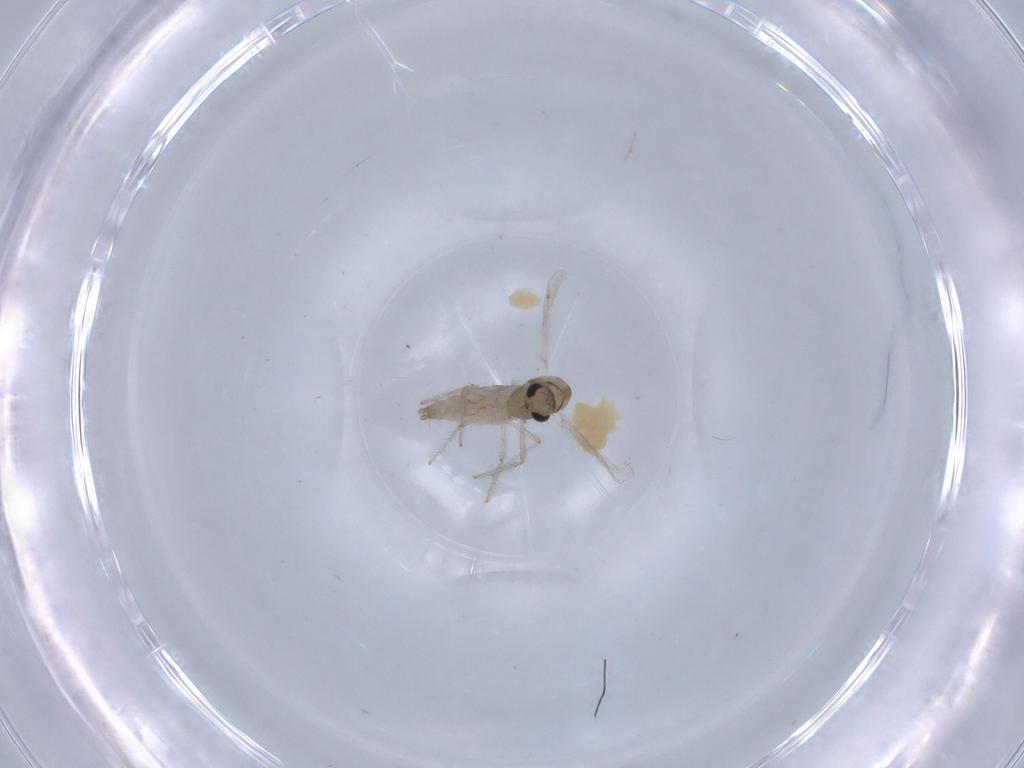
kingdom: Animalia
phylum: Arthropoda
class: Insecta
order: Diptera
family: Chironomidae
